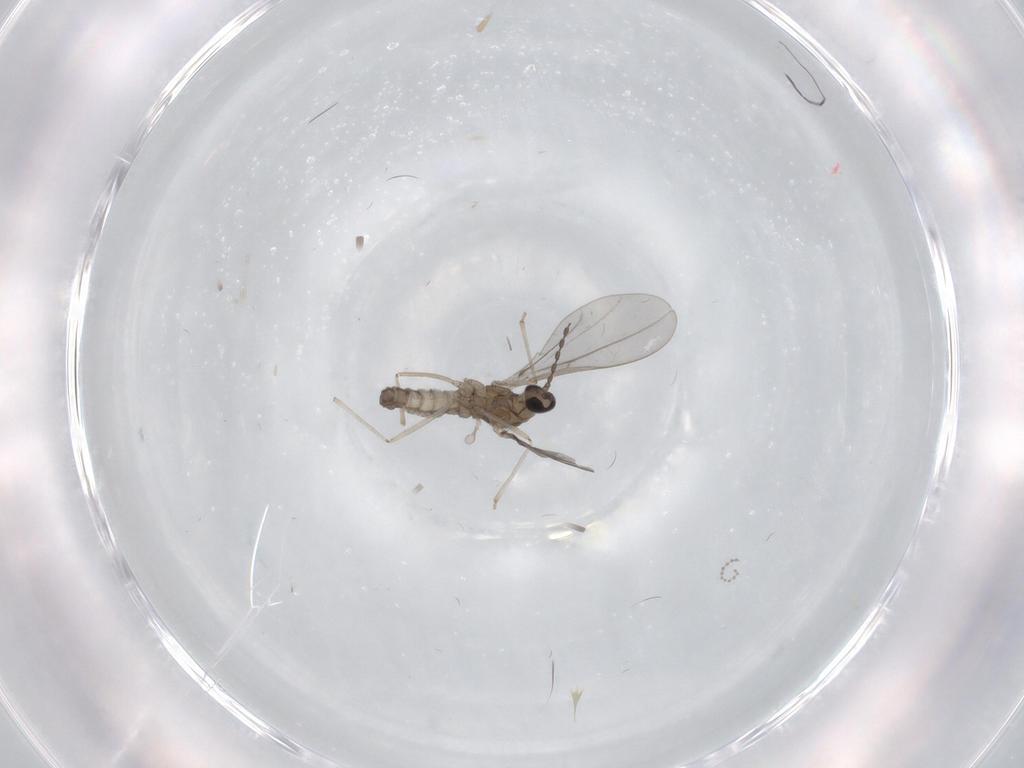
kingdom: Animalia
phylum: Arthropoda
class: Insecta
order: Diptera
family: Cecidomyiidae
